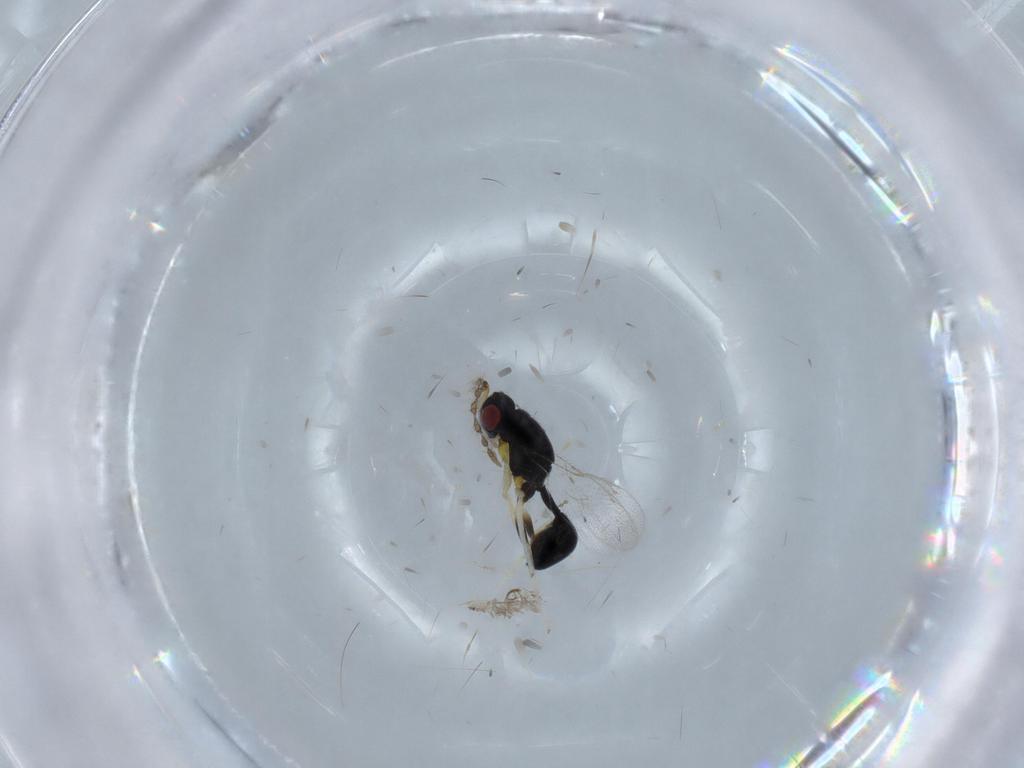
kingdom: Animalia
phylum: Arthropoda
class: Insecta
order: Hymenoptera
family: Eurytomidae
